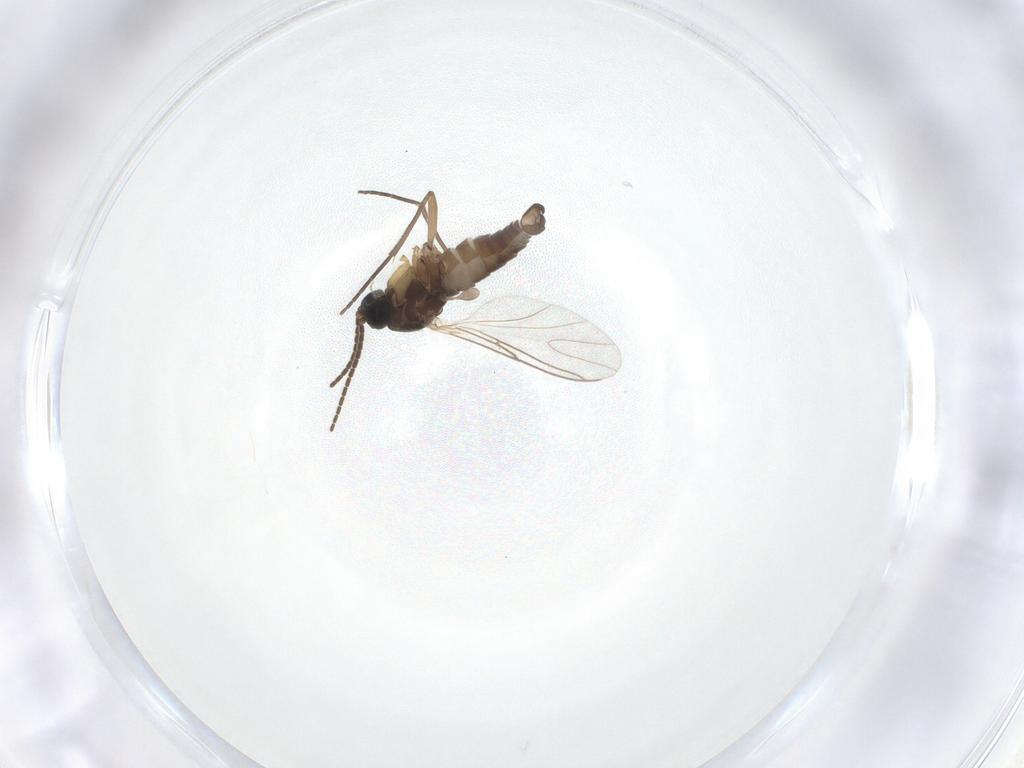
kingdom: Animalia
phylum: Arthropoda
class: Insecta
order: Diptera
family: Sciaridae
